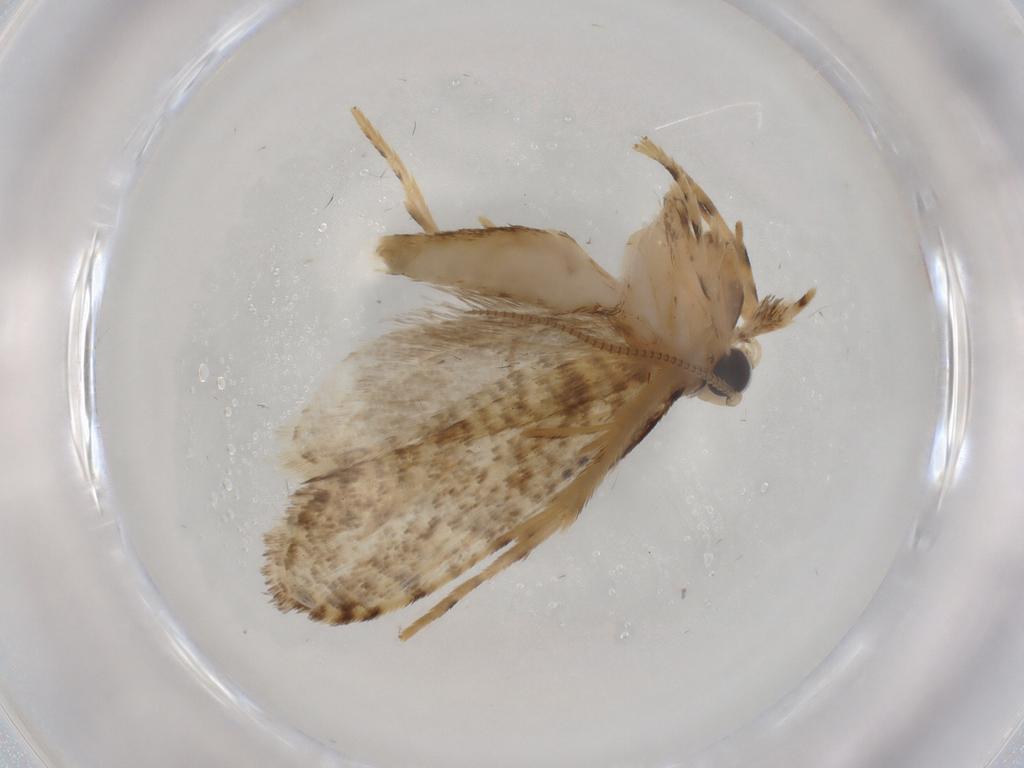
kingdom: Animalia
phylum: Arthropoda
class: Insecta
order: Lepidoptera
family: Tineidae
